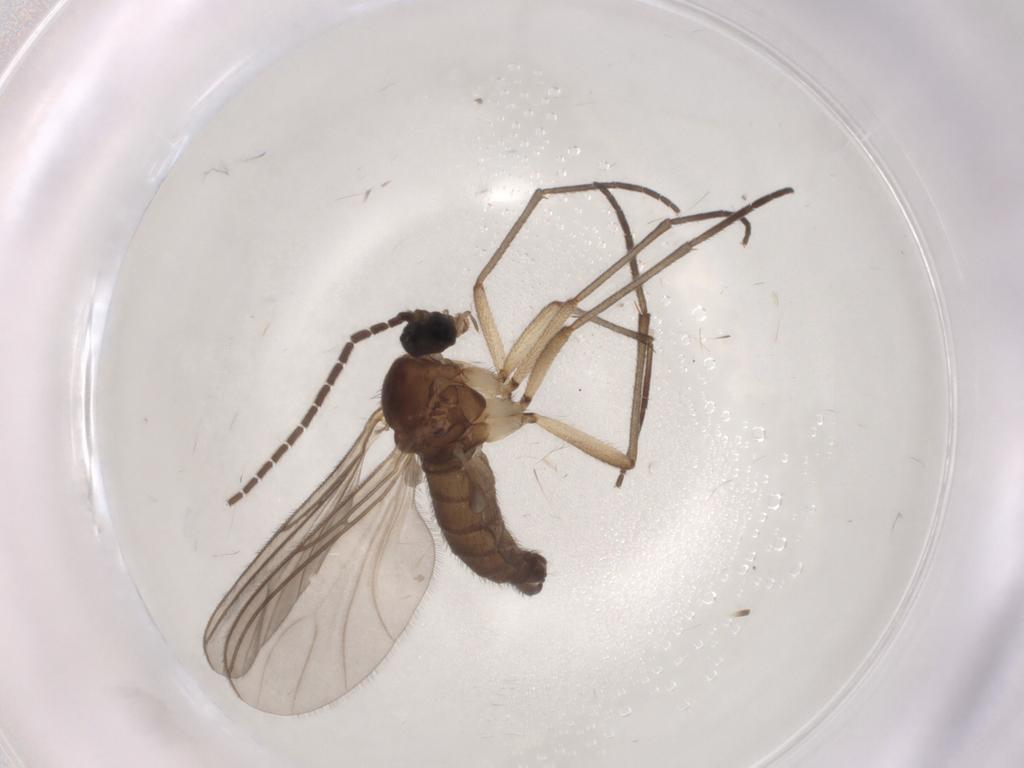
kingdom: Animalia
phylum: Arthropoda
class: Insecta
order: Diptera
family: Sciaridae
